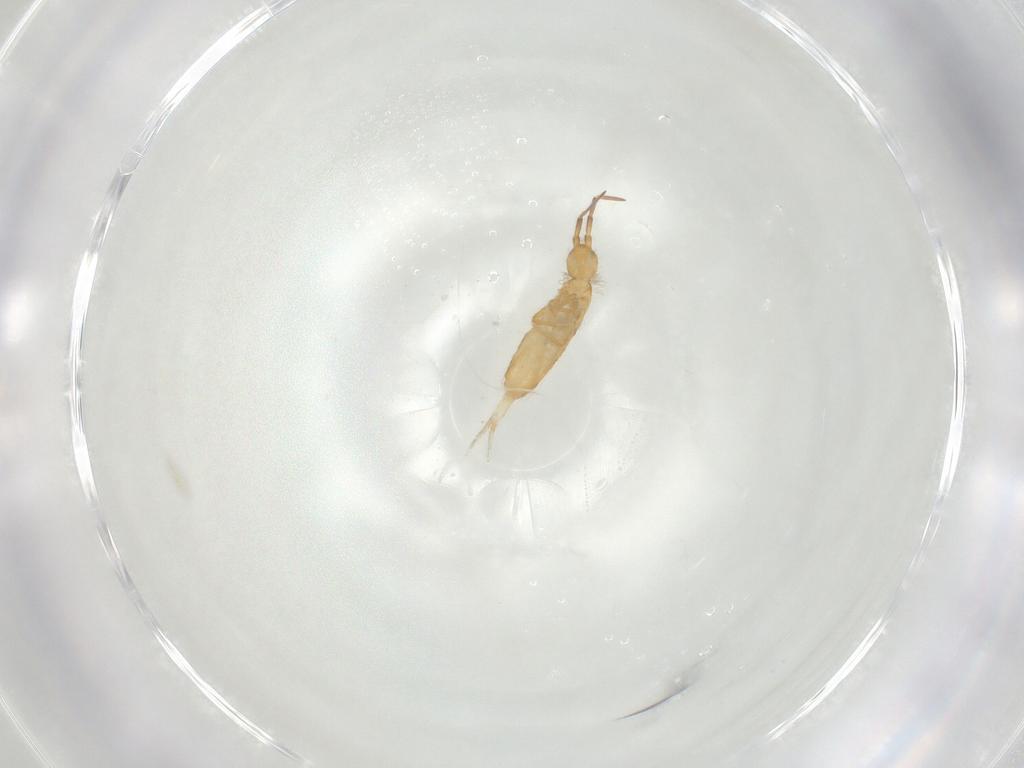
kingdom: Animalia
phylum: Arthropoda
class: Collembola
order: Entomobryomorpha
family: Entomobryidae
